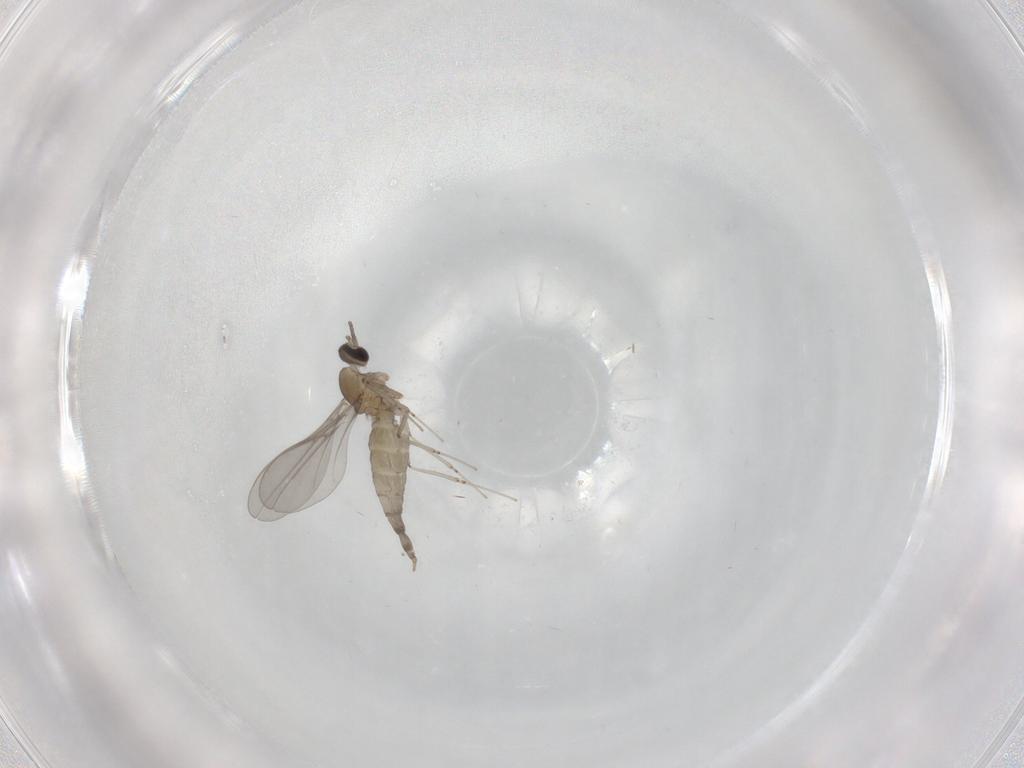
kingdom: Animalia
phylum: Arthropoda
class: Insecta
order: Diptera
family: Cecidomyiidae
